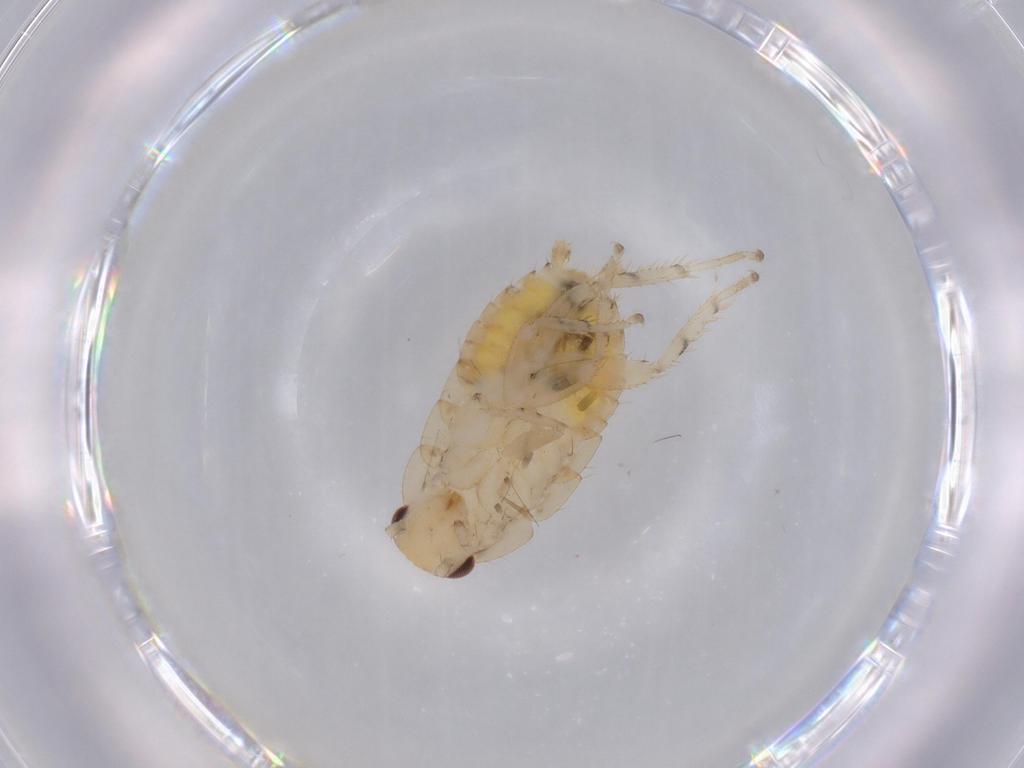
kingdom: Animalia
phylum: Arthropoda
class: Insecta
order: Blattodea
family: Ectobiidae
